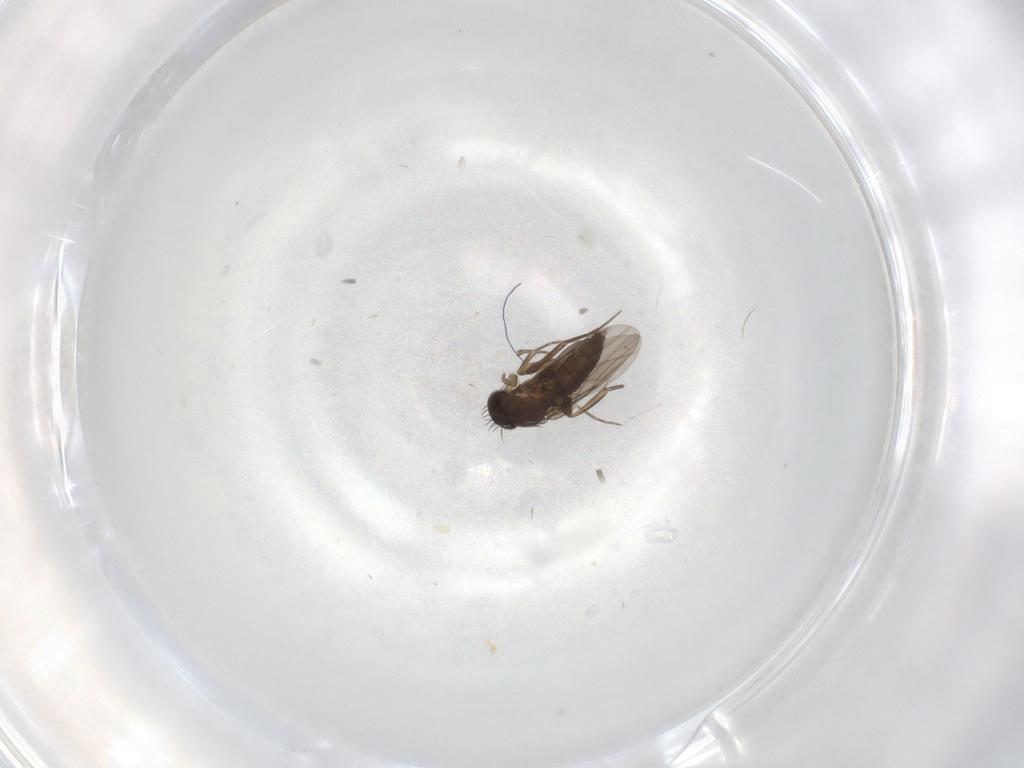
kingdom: Animalia
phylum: Arthropoda
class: Insecta
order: Diptera
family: Phoridae
